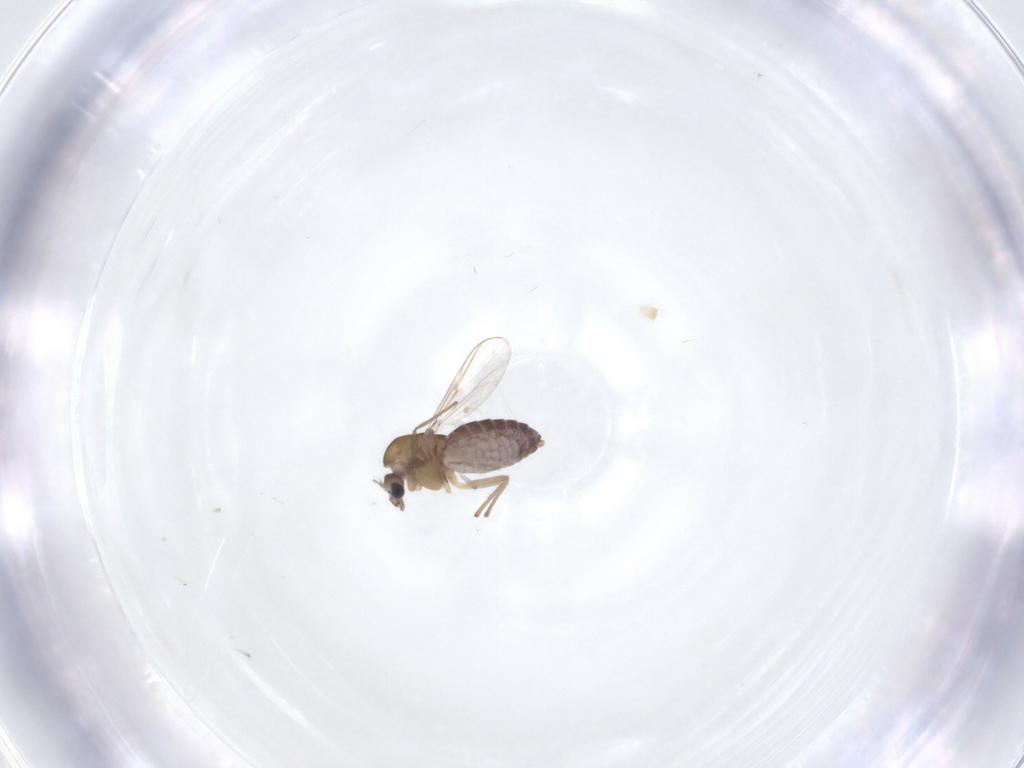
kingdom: Animalia
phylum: Arthropoda
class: Insecta
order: Diptera
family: Chironomidae
